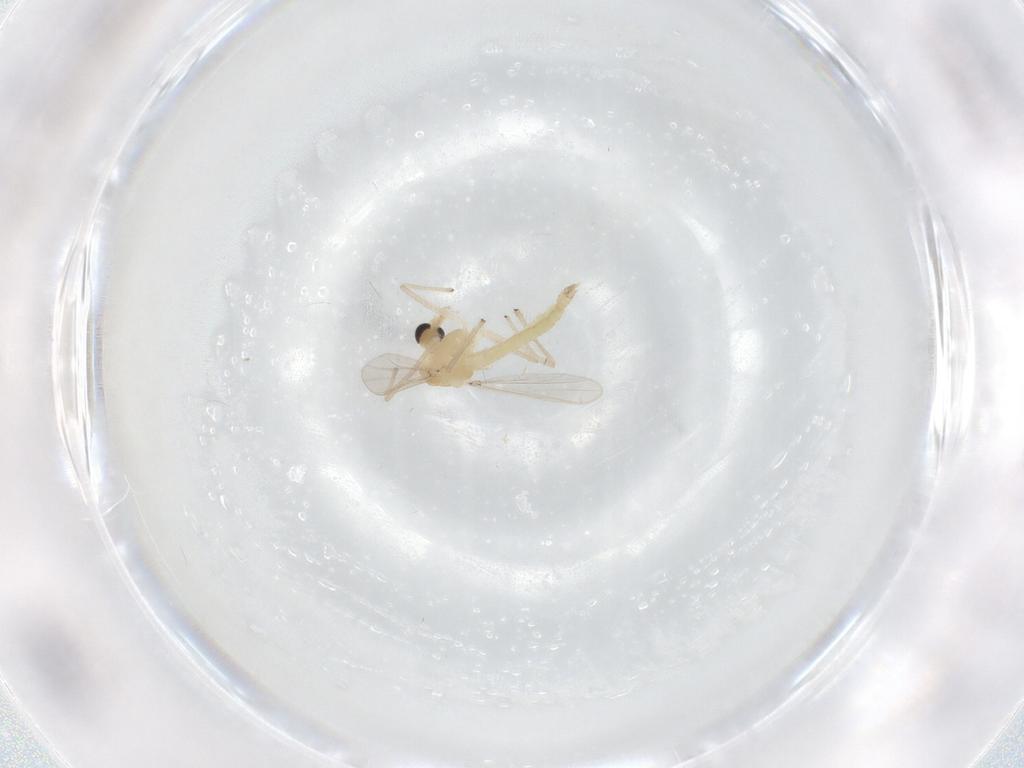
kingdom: Animalia
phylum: Arthropoda
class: Insecta
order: Diptera
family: Chironomidae
